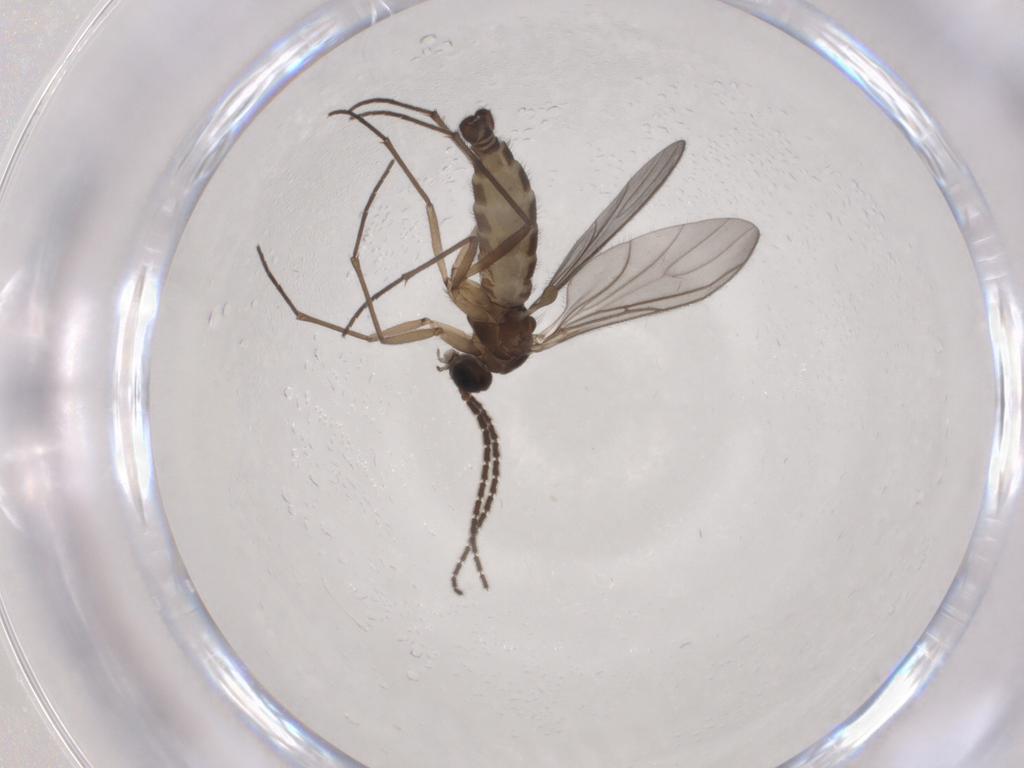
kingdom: Animalia
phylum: Arthropoda
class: Insecta
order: Diptera
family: Sciaridae
